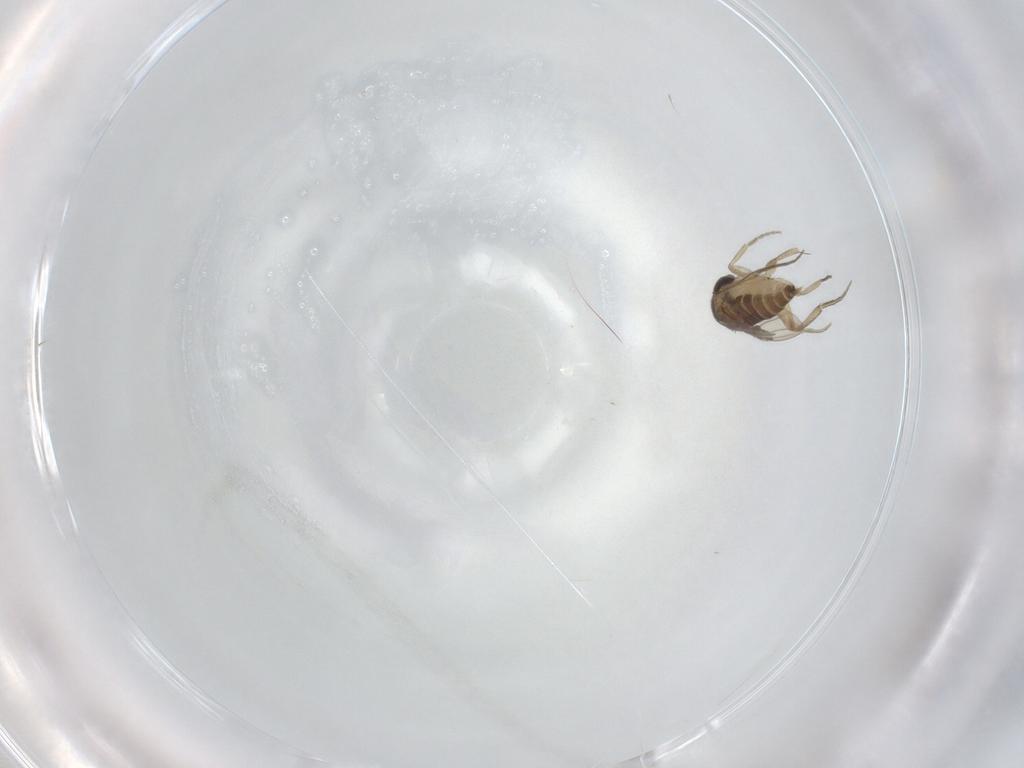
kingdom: Animalia
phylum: Arthropoda
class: Insecta
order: Diptera
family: Phoridae
